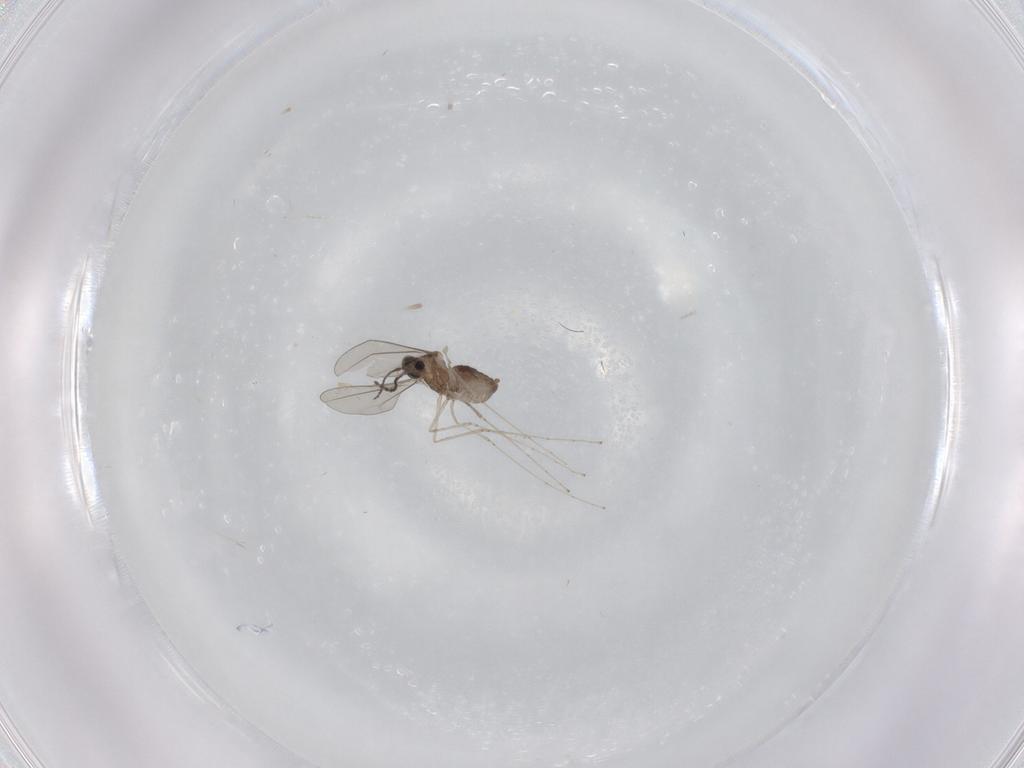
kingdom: Animalia
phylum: Arthropoda
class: Insecta
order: Diptera
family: Cecidomyiidae
